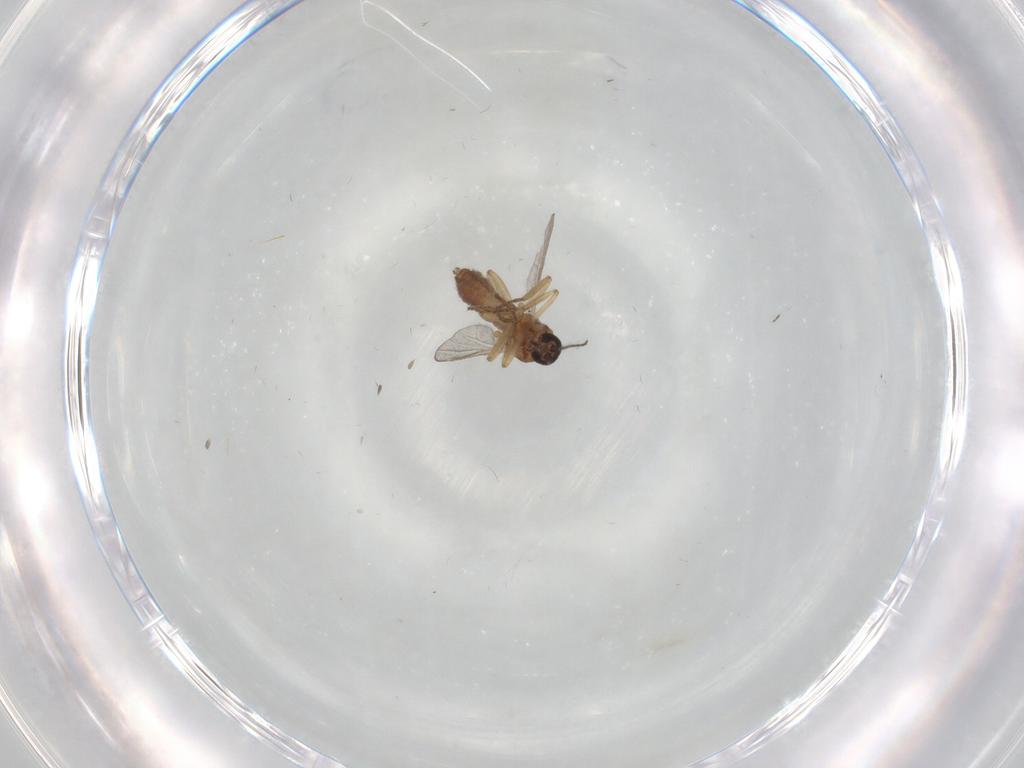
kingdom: Animalia
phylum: Arthropoda
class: Insecta
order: Diptera
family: Ceratopogonidae
